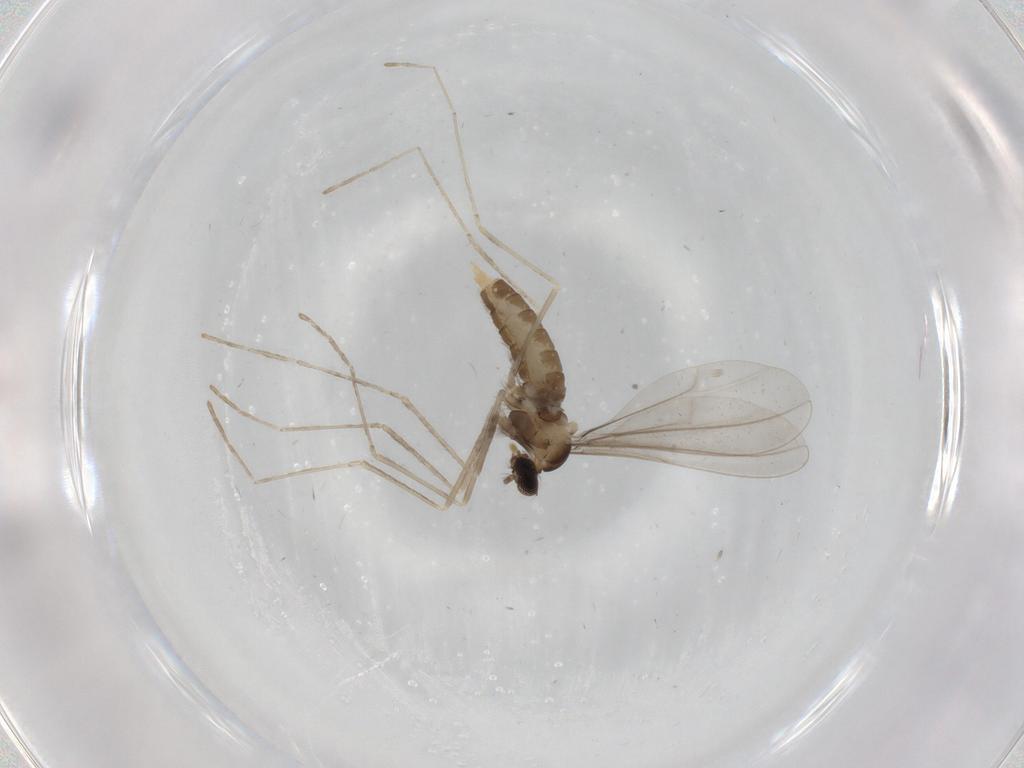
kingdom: Animalia
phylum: Arthropoda
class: Insecta
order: Diptera
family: Cecidomyiidae
